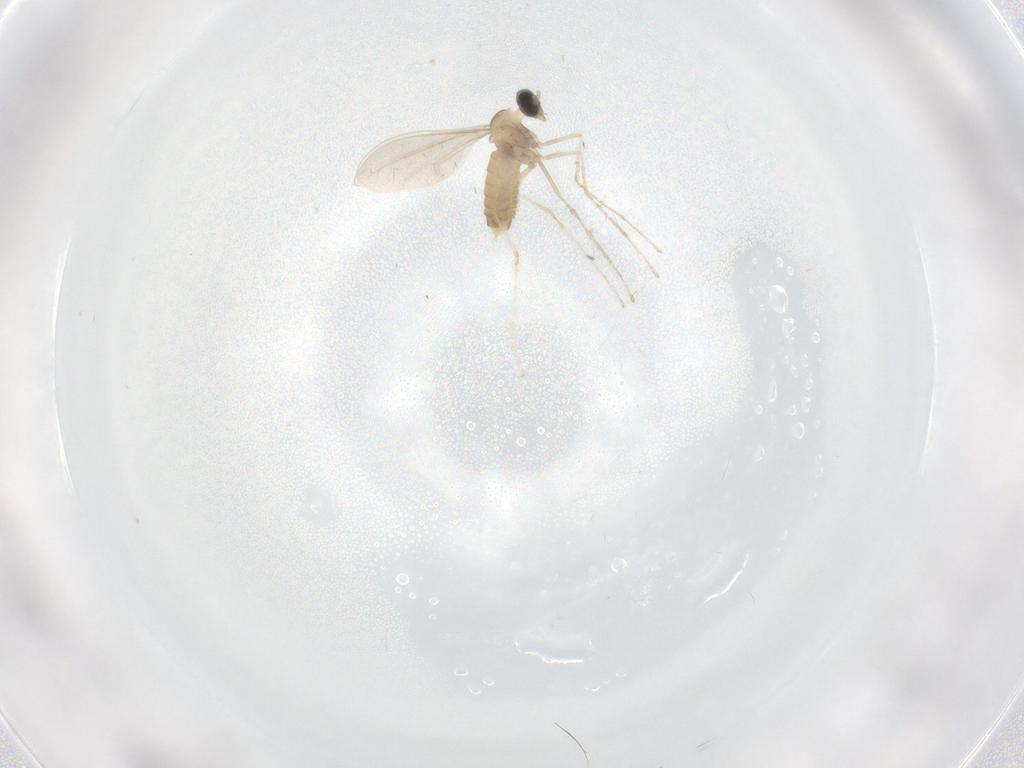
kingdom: Animalia
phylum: Arthropoda
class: Insecta
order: Diptera
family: Cecidomyiidae
